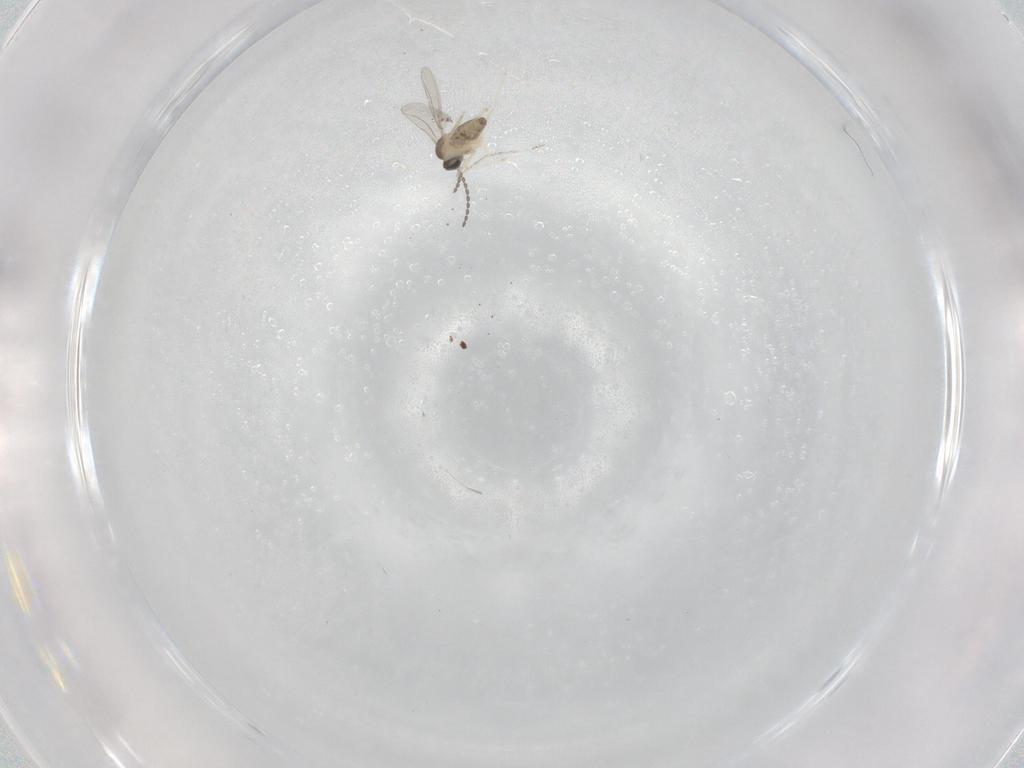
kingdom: Animalia
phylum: Arthropoda
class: Insecta
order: Diptera
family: Cecidomyiidae
